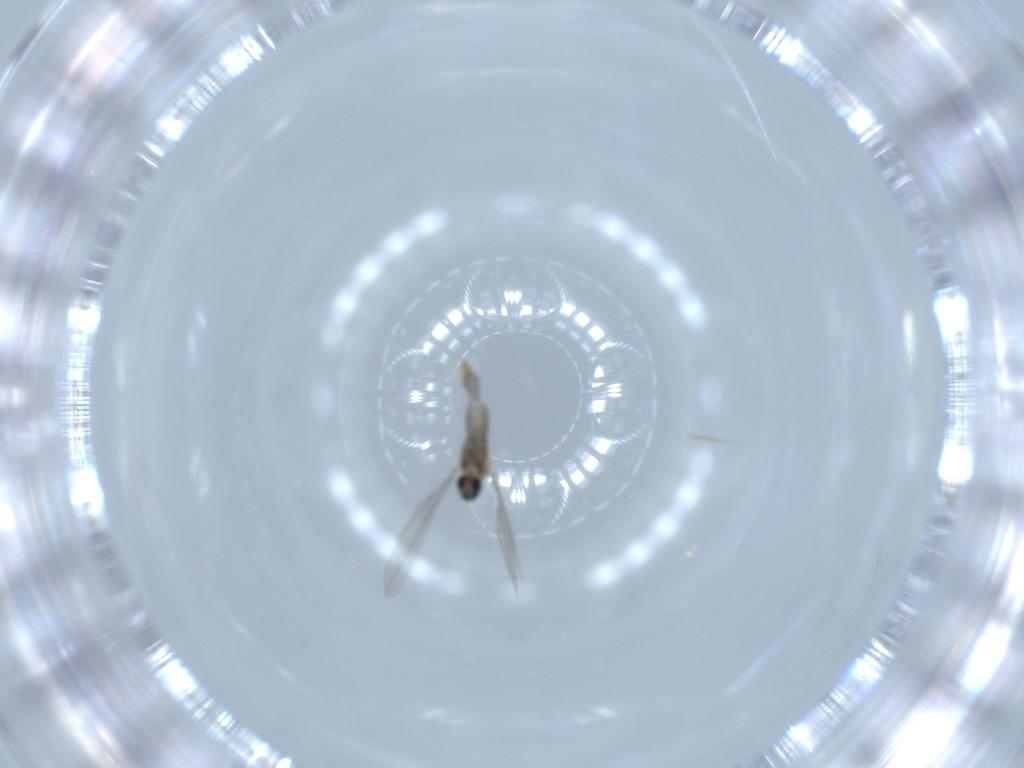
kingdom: Animalia
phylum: Arthropoda
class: Insecta
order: Diptera
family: Cecidomyiidae
